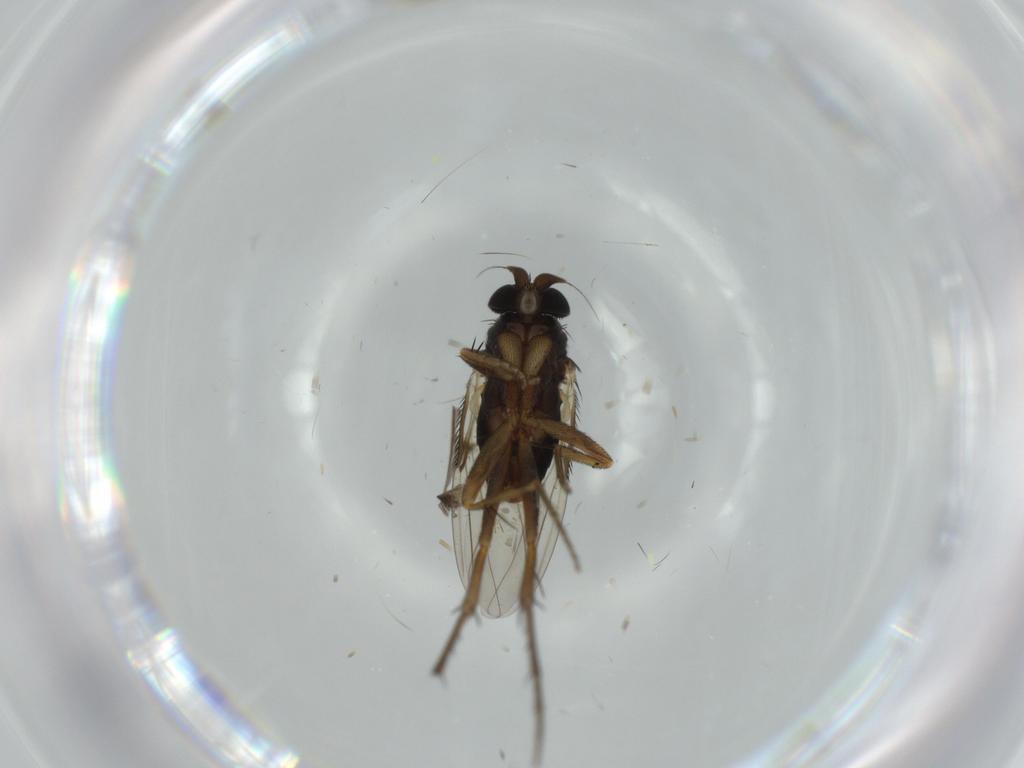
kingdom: Animalia
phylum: Arthropoda
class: Insecta
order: Diptera
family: Phoridae
